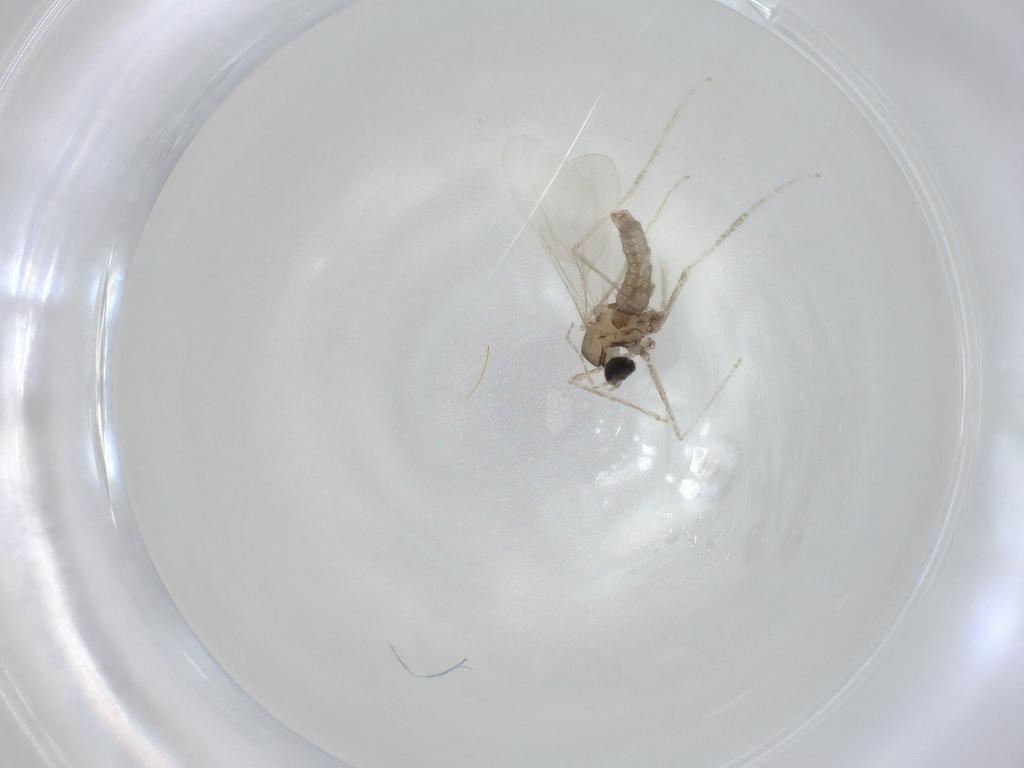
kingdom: Animalia
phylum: Arthropoda
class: Insecta
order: Diptera
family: Cecidomyiidae
